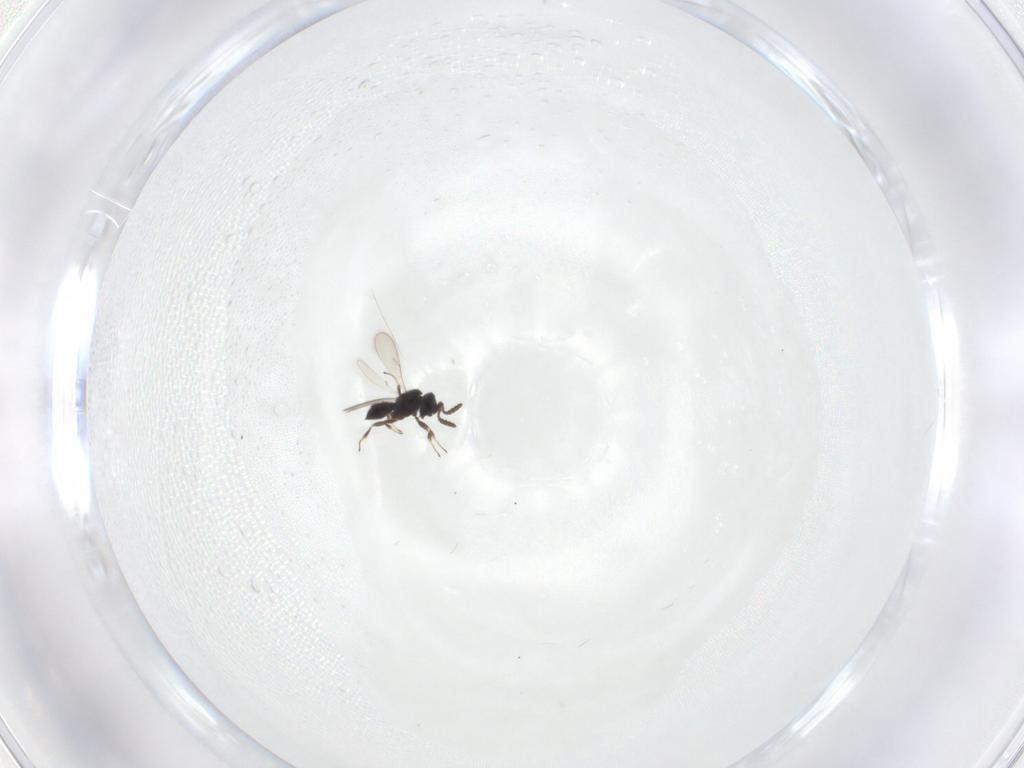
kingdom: Animalia
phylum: Arthropoda
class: Insecta
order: Hymenoptera
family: Scelionidae
